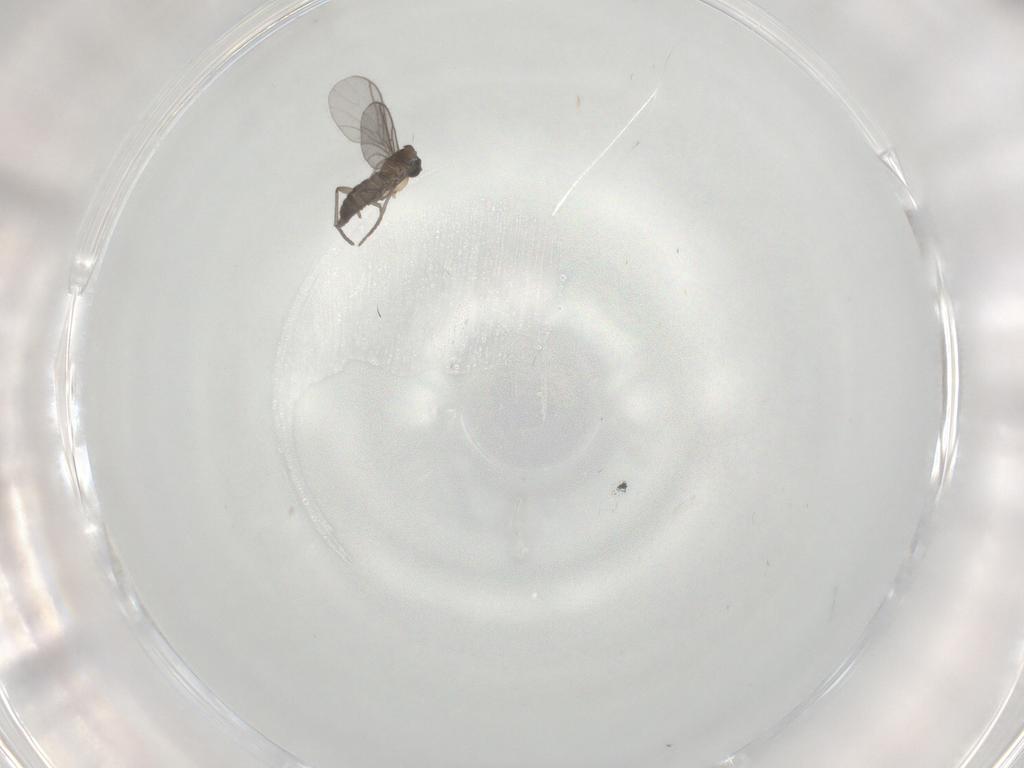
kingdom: Animalia
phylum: Arthropoda
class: Insecta
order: Diptera
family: Sciaridae
